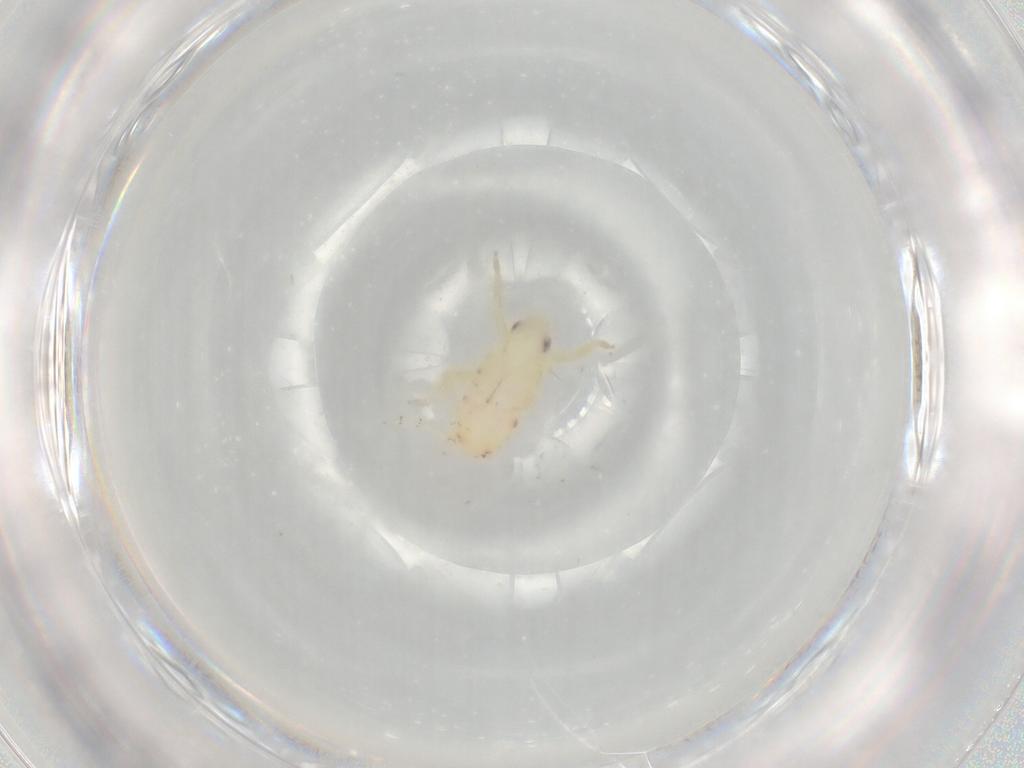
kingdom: Animalia
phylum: Arthropoda
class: Insecta
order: Hemiptera
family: Tropiduchidae
